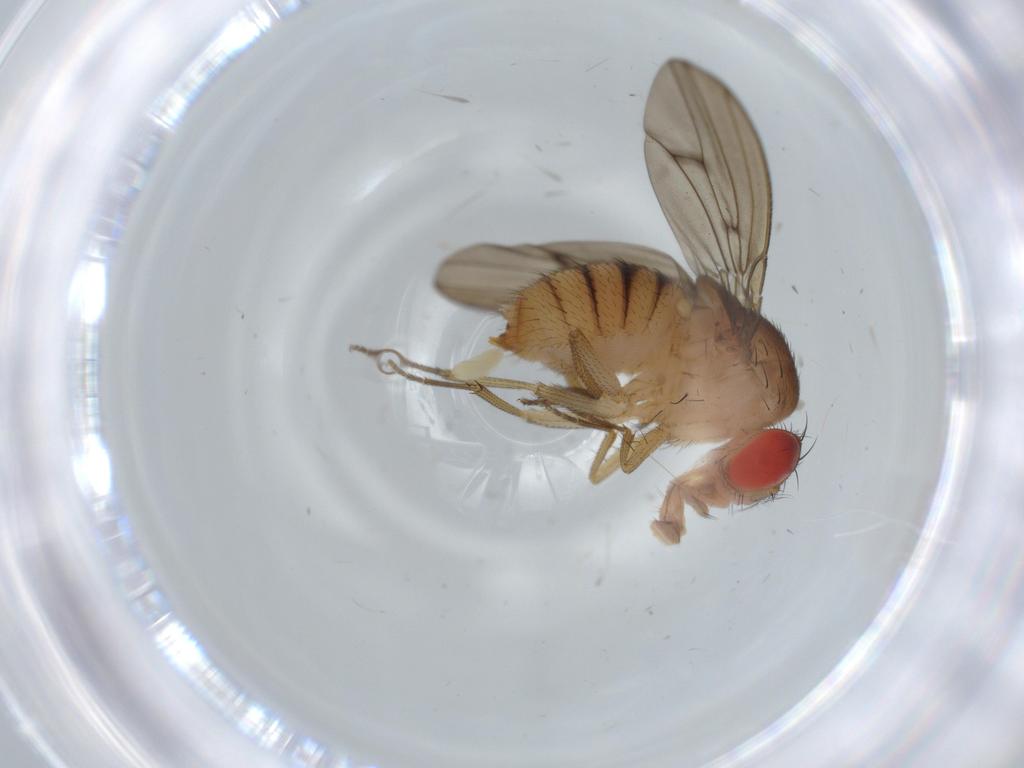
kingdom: Animalia
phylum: Arthropoda
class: Insecta
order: Diptera
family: Drosophilidae
